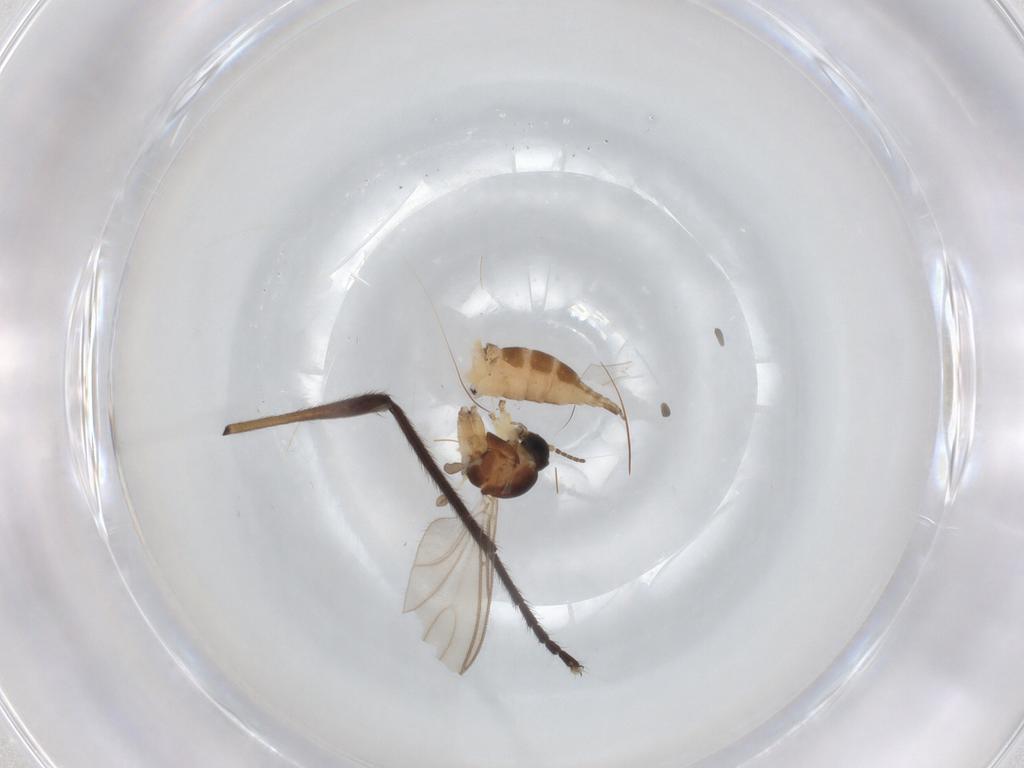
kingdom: Animalia
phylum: Arthropoda
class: Insecta
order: Diptera
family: Sciaridae
